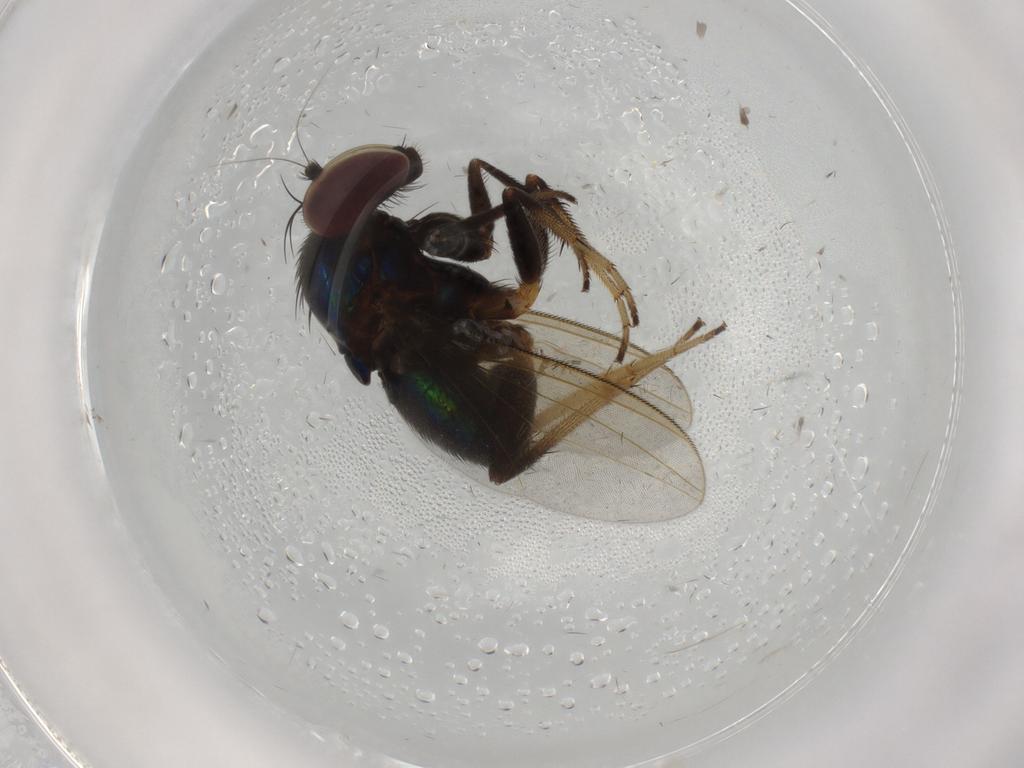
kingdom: Animalia
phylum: Arthropoda
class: Insecta
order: Diptera
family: Dolichopodidae
